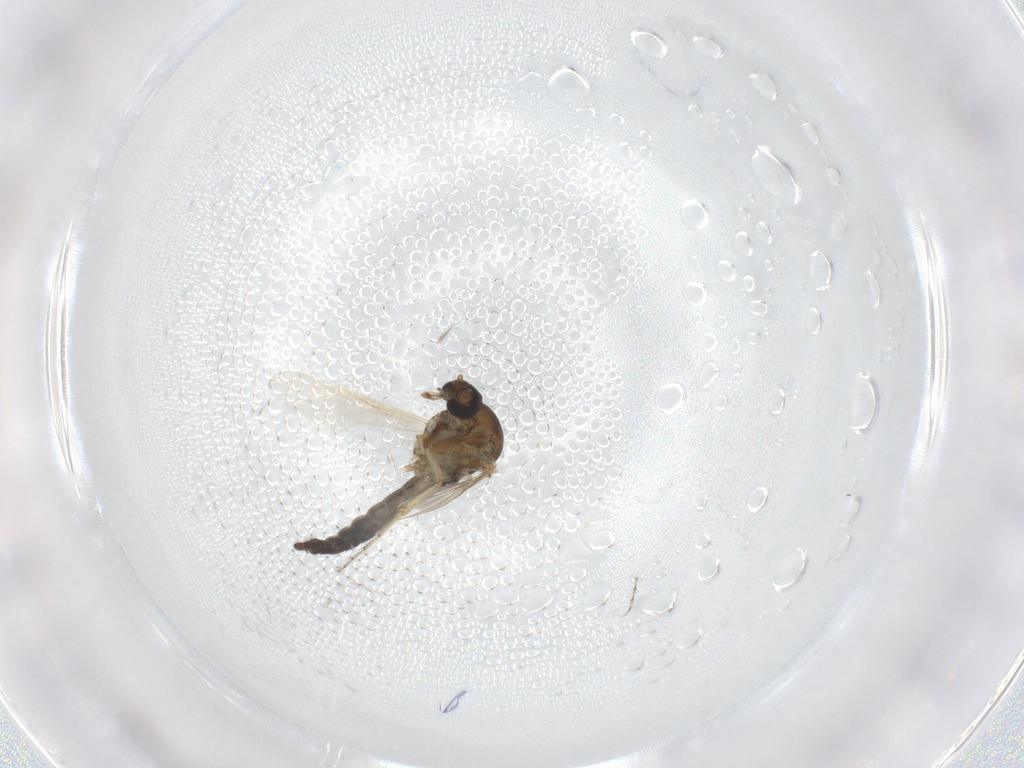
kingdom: Animalia
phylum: Arthropoda
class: Insecta
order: Diptera
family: Ceratopogonidae
